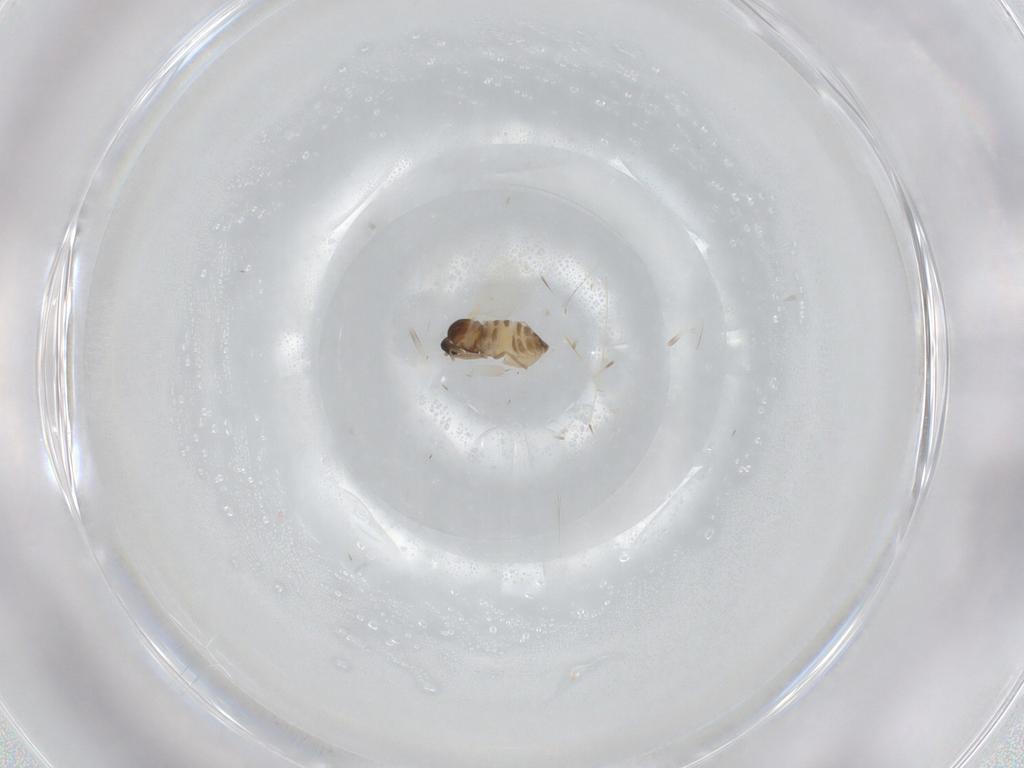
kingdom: Animalia
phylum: Arthropoda
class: Insecta
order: Diptera
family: Cecidomyiidae
